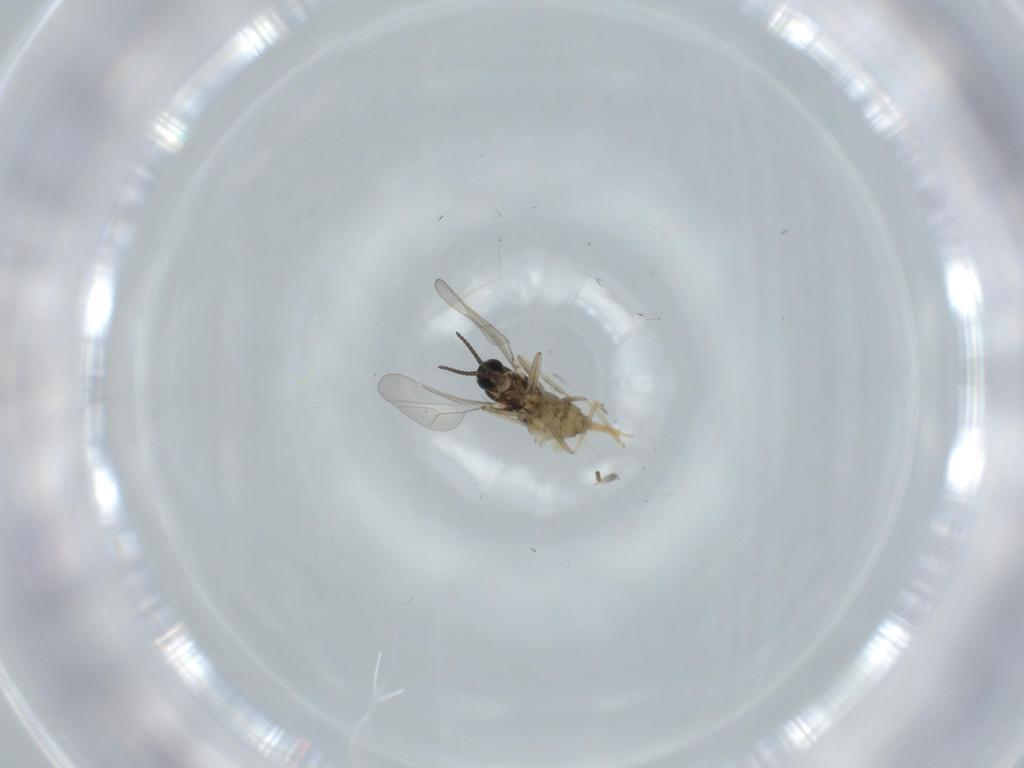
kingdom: Animalia
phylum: Arthropoda
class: Insecta
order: Diptera
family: Cecidomyiidae
